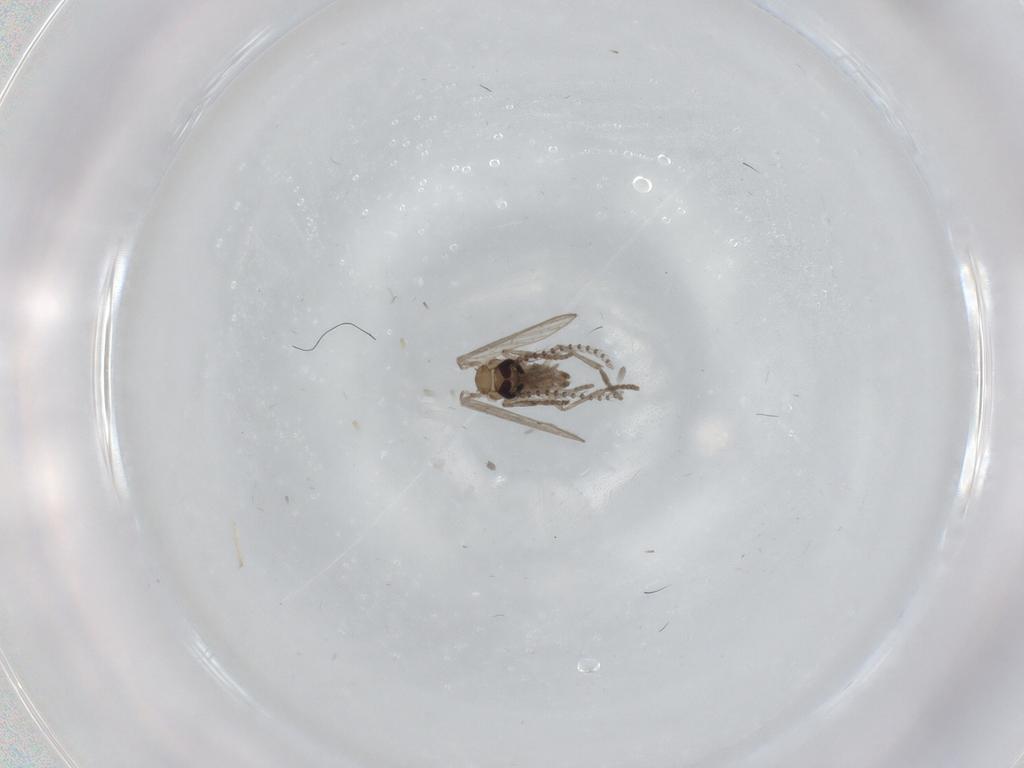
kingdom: Animalia
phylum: Arthropoda
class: Insecta
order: Diptera
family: Psychodidae
